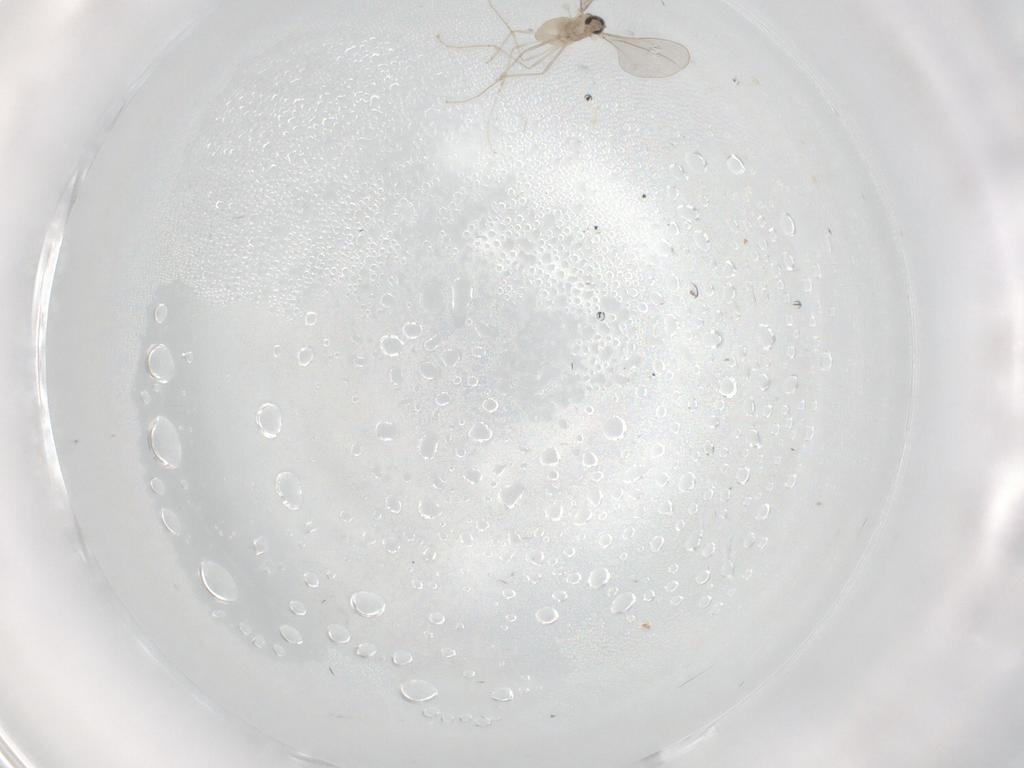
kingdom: Animalia
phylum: Arthropoda
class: Insecta
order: Diptera
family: Cecidomyiidae
